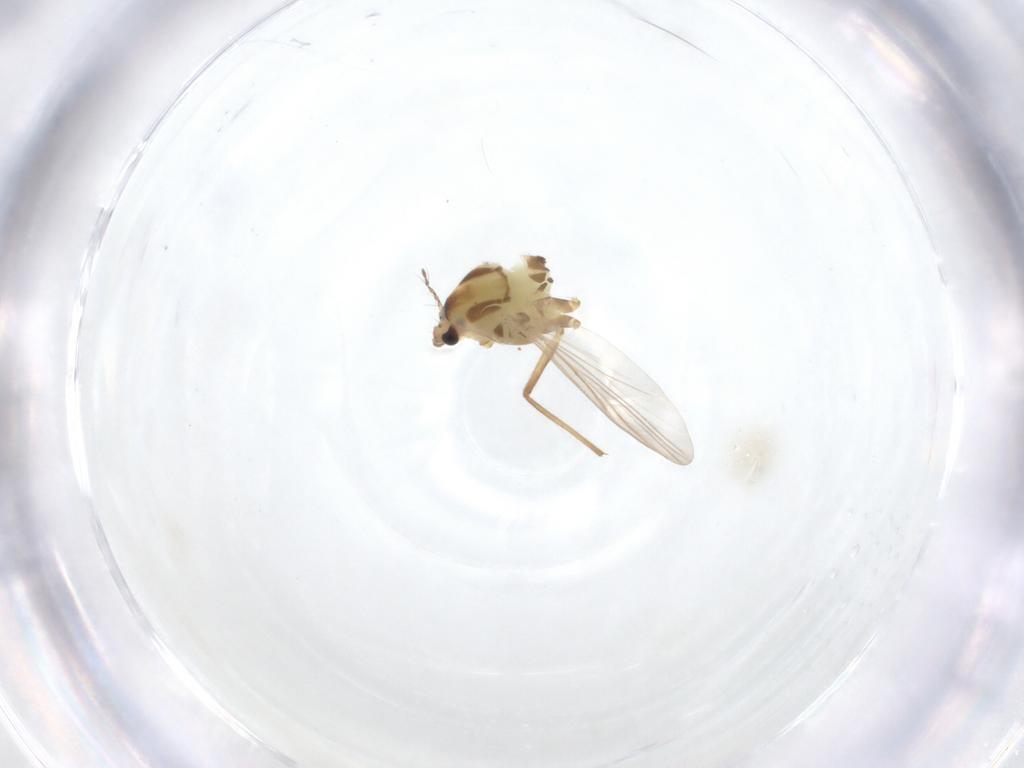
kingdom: Animalia
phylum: Arthropoda
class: Insecta
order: Diptera
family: Chironomidae
